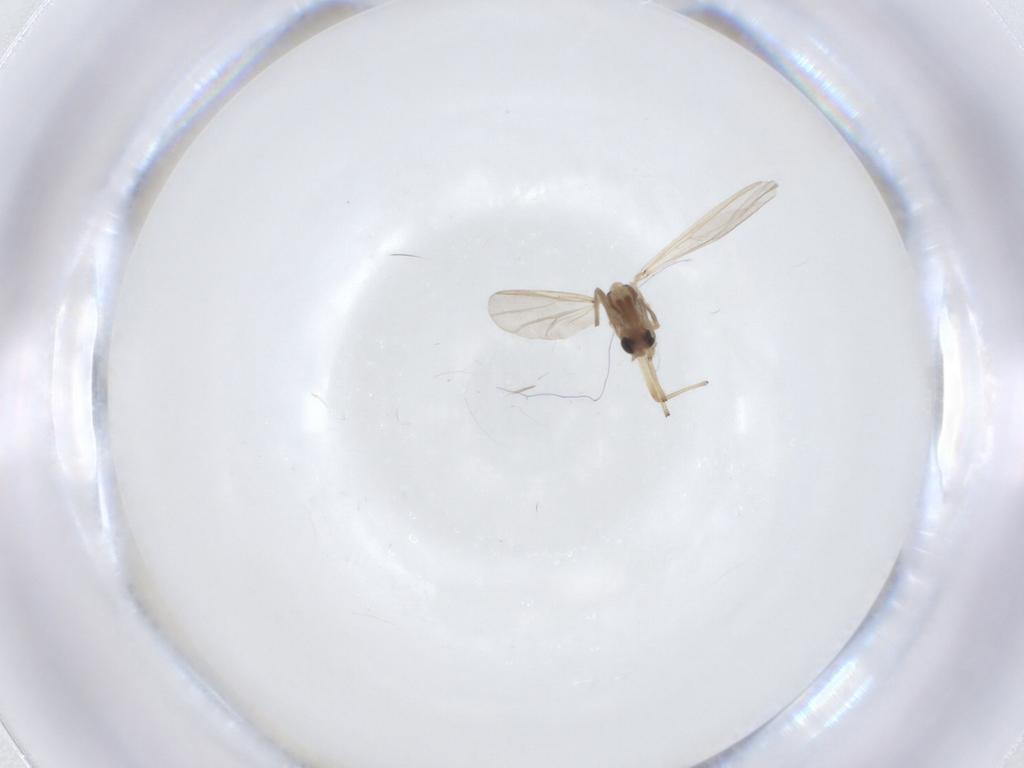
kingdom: Animalia
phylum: Arthropoda
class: Insecta
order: Diptera
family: Chironomidae
